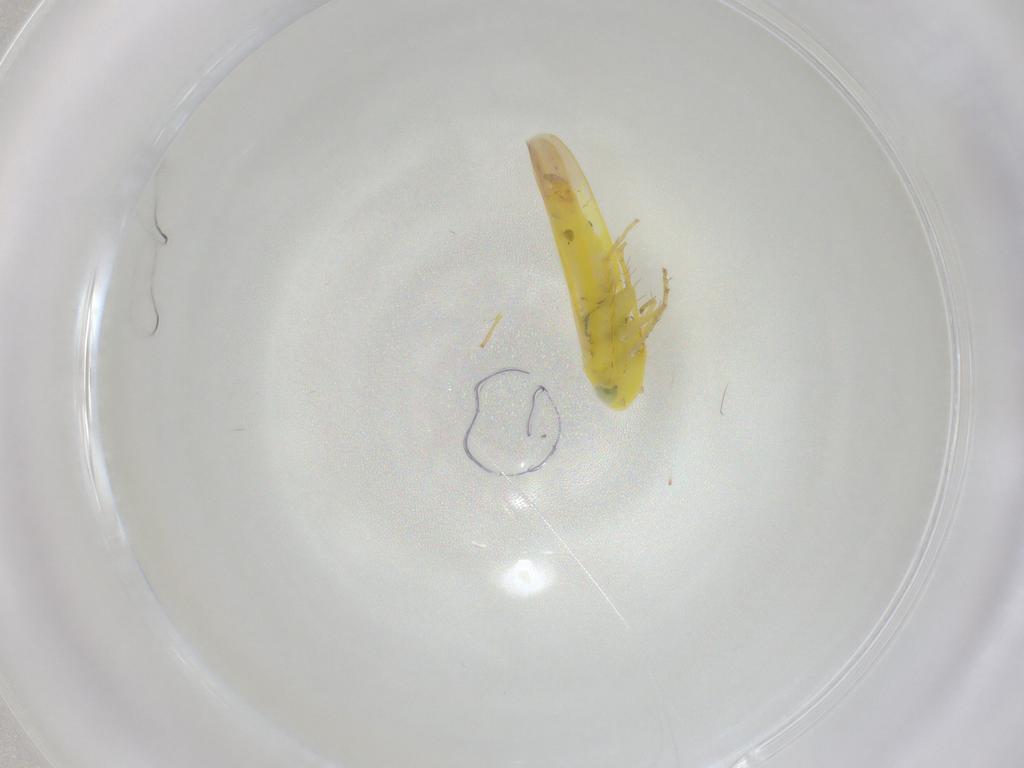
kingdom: Animalia
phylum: Arthropoda
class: Insecta
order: Hemiptera
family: Cicadellidae
